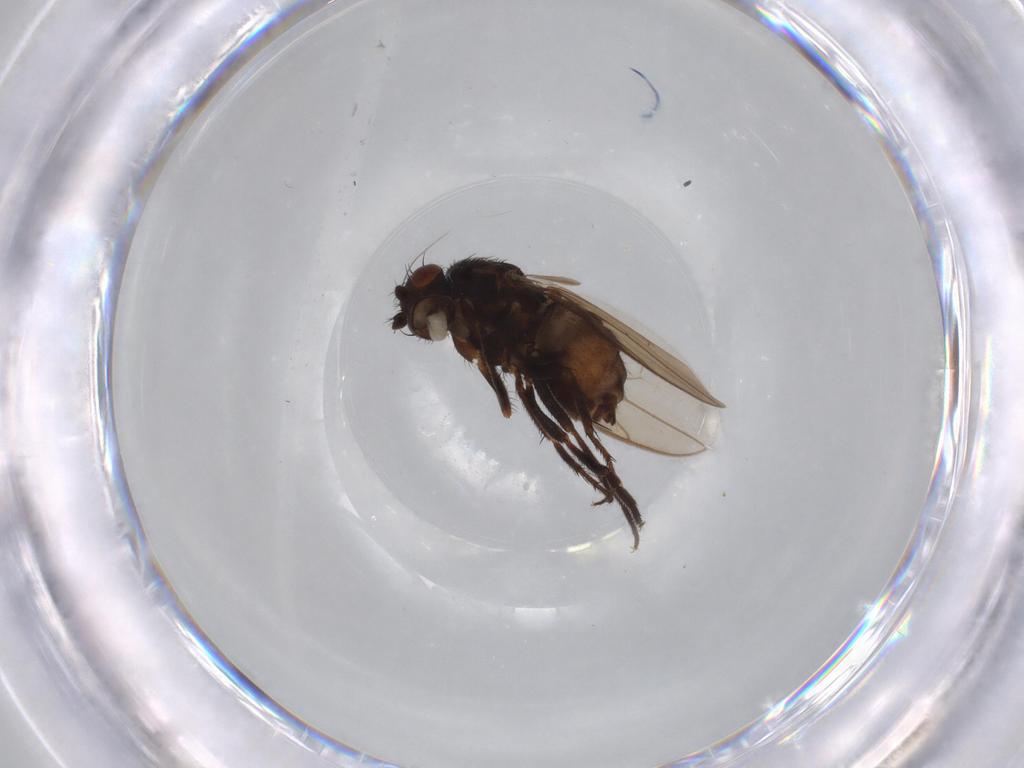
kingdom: Animalia
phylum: Arthropoda
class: Insecta
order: Diptera
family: Sphaeroceridae
